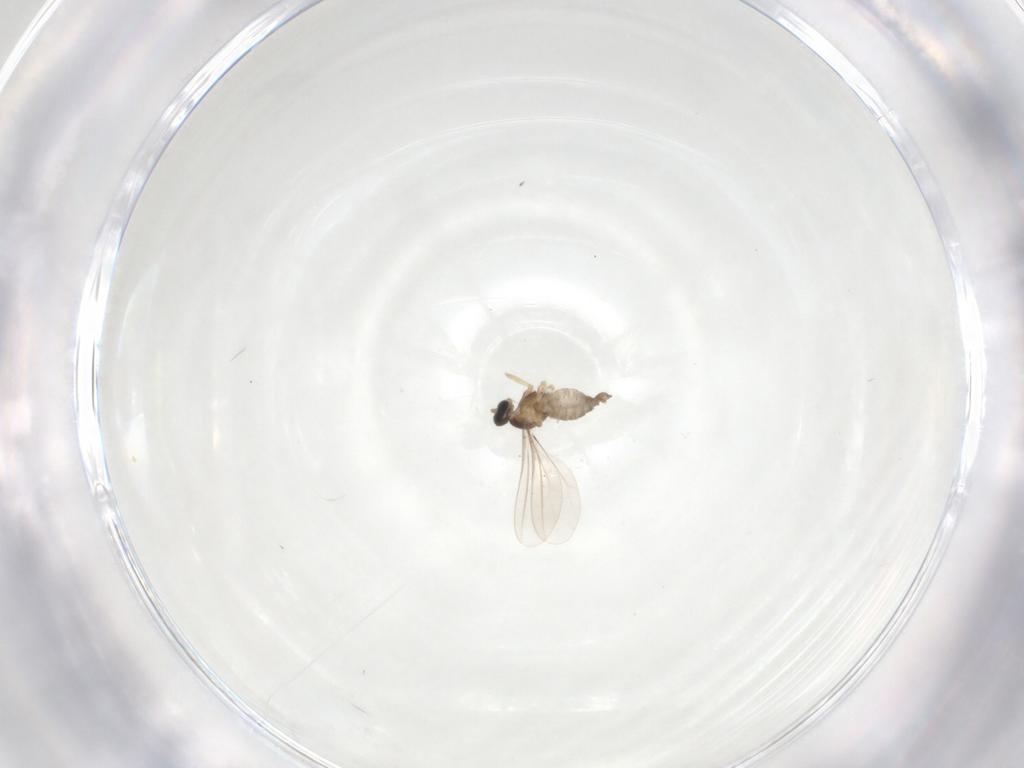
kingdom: Animalia
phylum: Arthropoda
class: Insecta
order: Diptera
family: Cecidomyiidae
